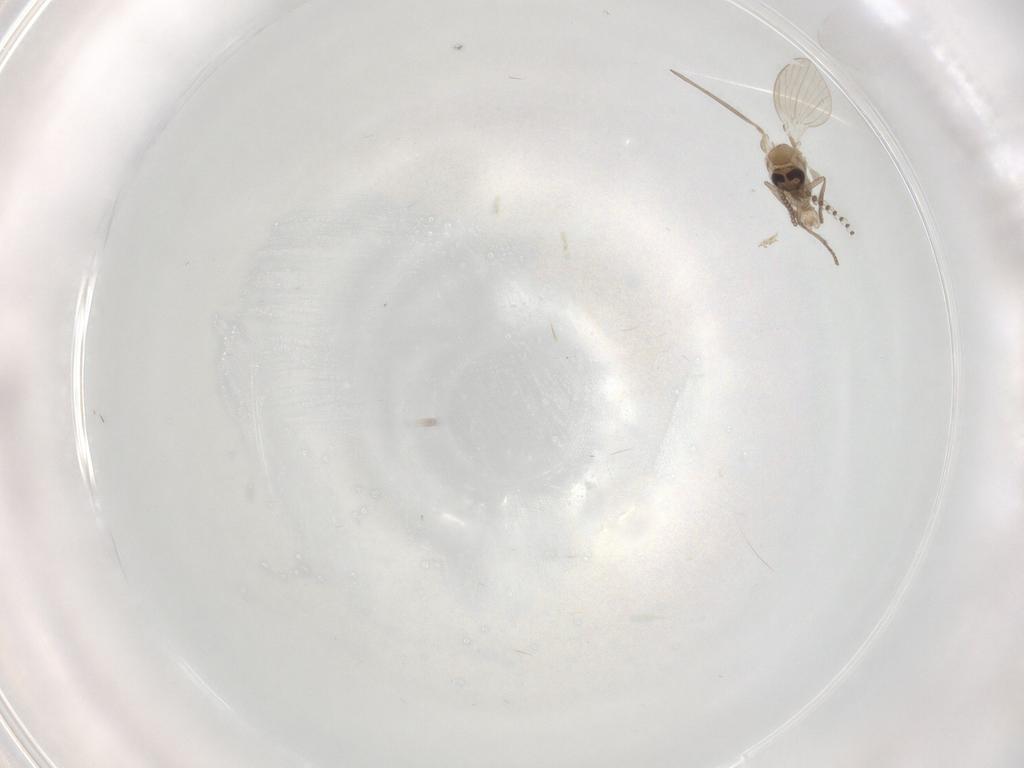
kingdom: Animalia
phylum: Arthropoda
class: Insecta
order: Diptera
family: Psychodidae
